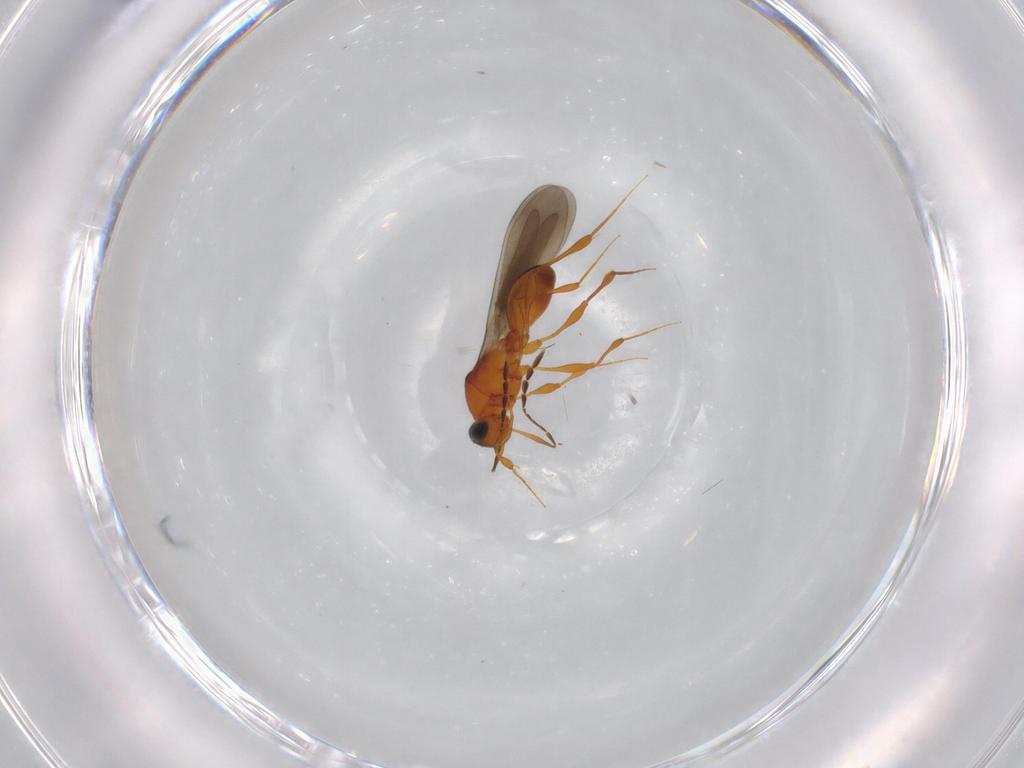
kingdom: Animalia
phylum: Arthropoda
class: Insecta
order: Hymenoptera
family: Platygastridae
